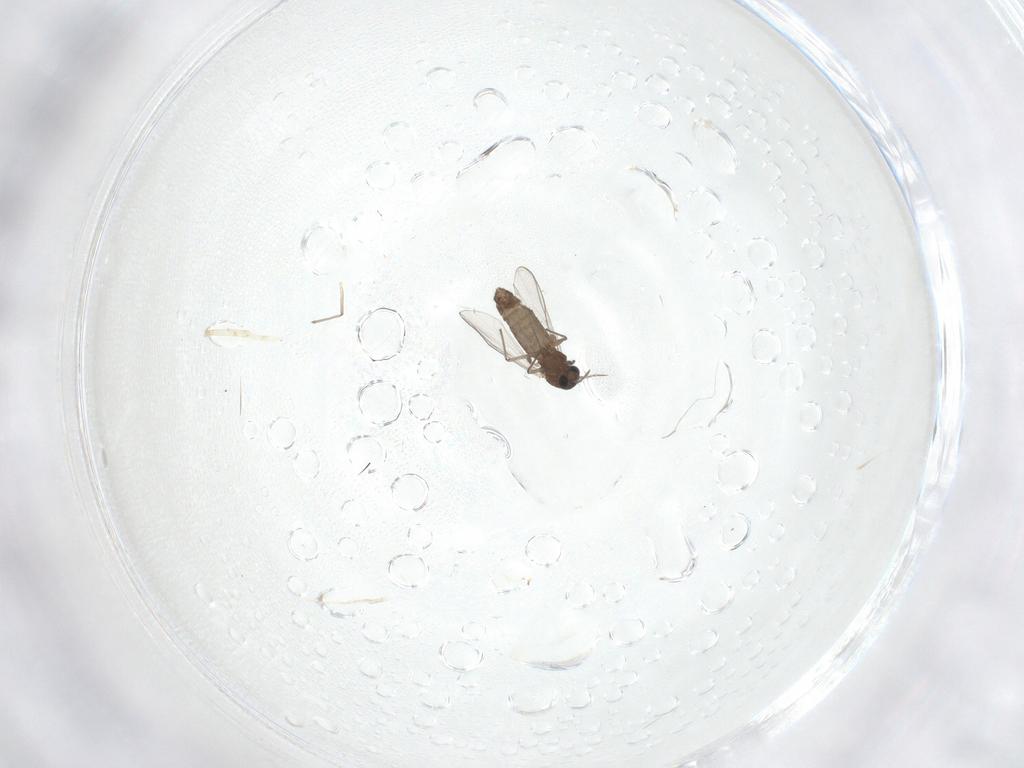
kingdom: Animalia
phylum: Arthropoda
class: Insecta
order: Diptera
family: Chironomidae
